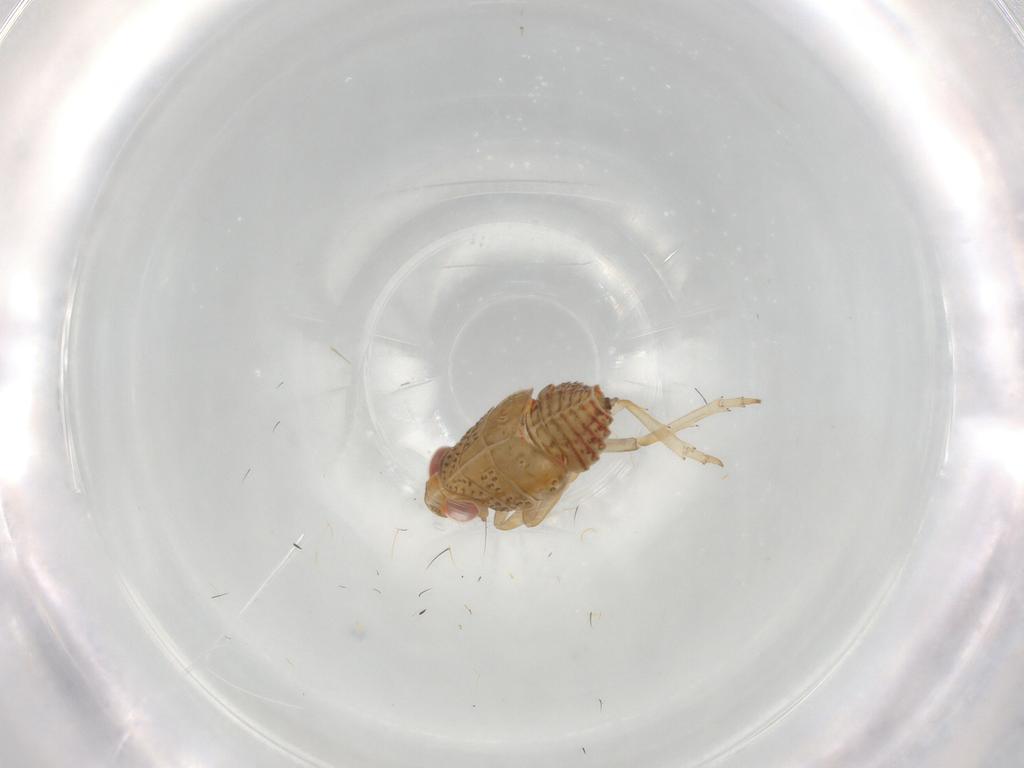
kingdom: Animalia
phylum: Arthropoda
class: Insecta
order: Hemiptera
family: Issidae
